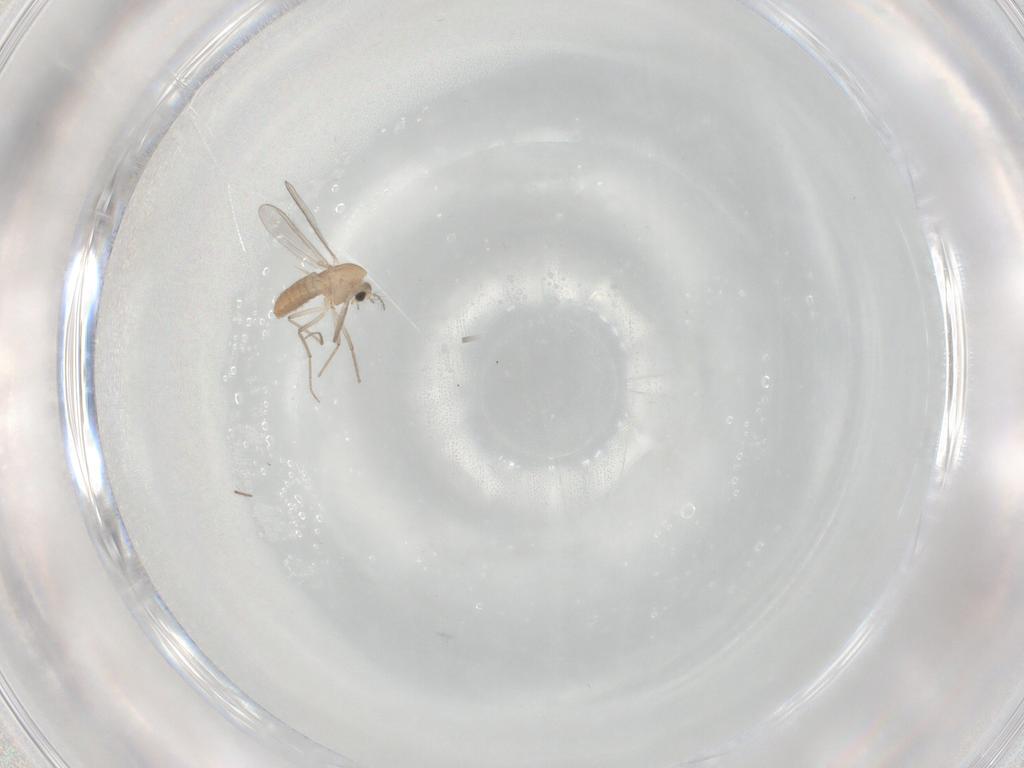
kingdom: Animalia
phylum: Arthropoda
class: Insecta
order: Diptera
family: Chironomidae
